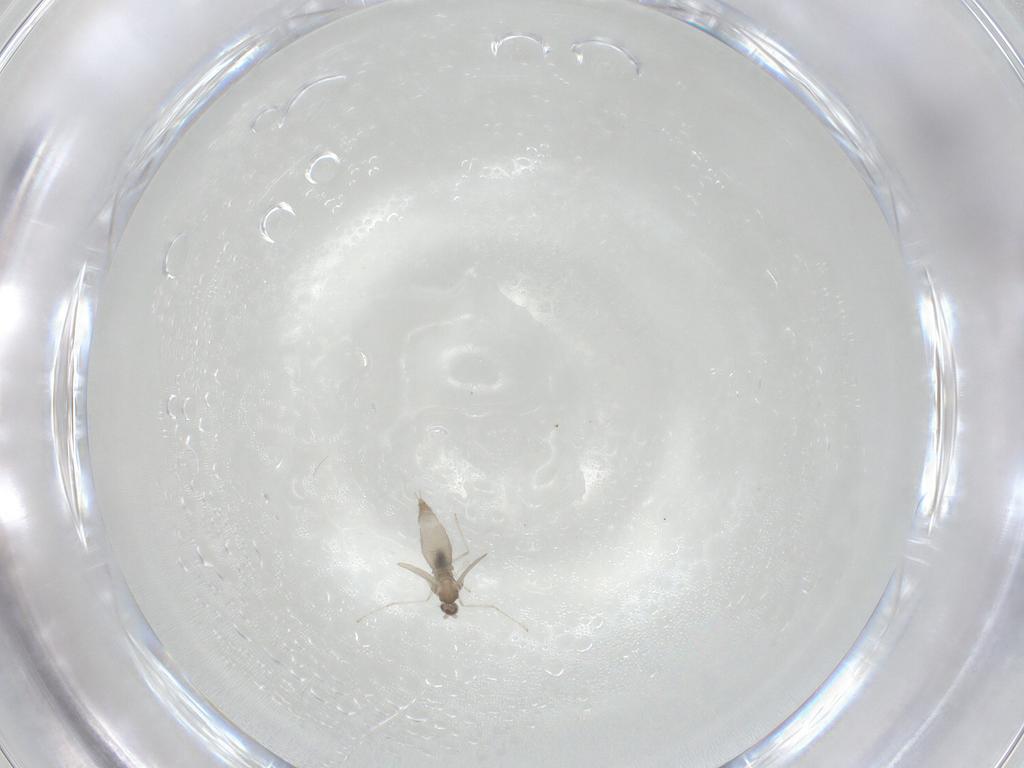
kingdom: Animalia
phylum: Arthropoda
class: Insecta
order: Diptera
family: Cecidomyiidae
